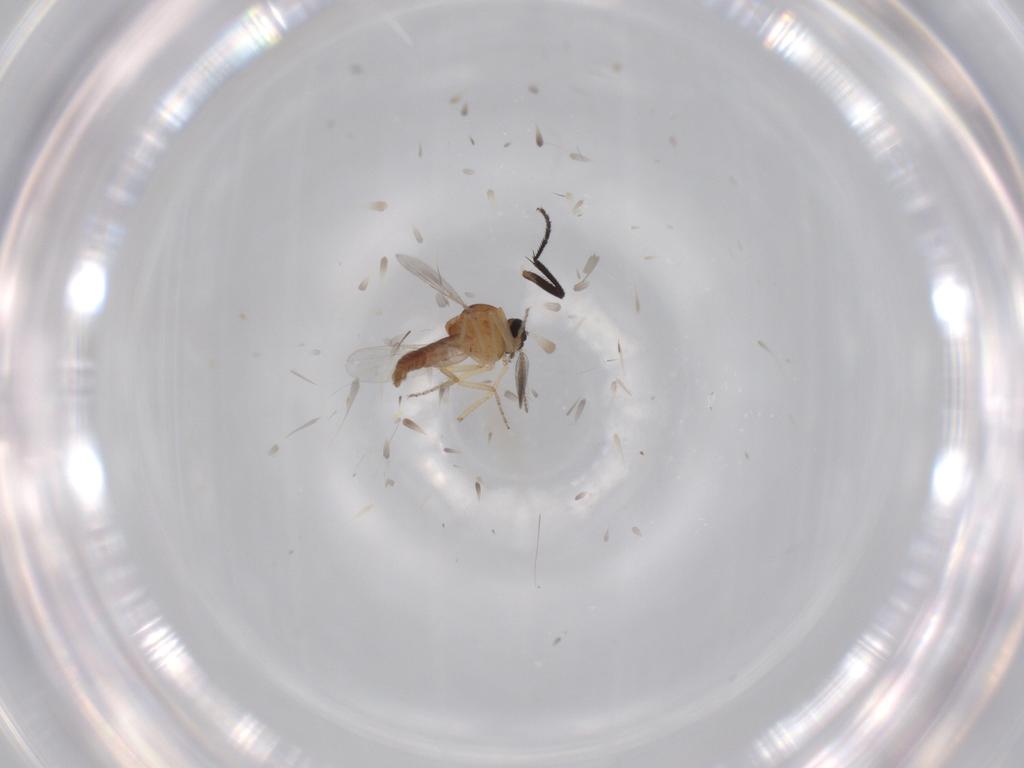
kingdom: Animalia
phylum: Arthropoda
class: Insecta
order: Diptera
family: Ceratopogonidae
